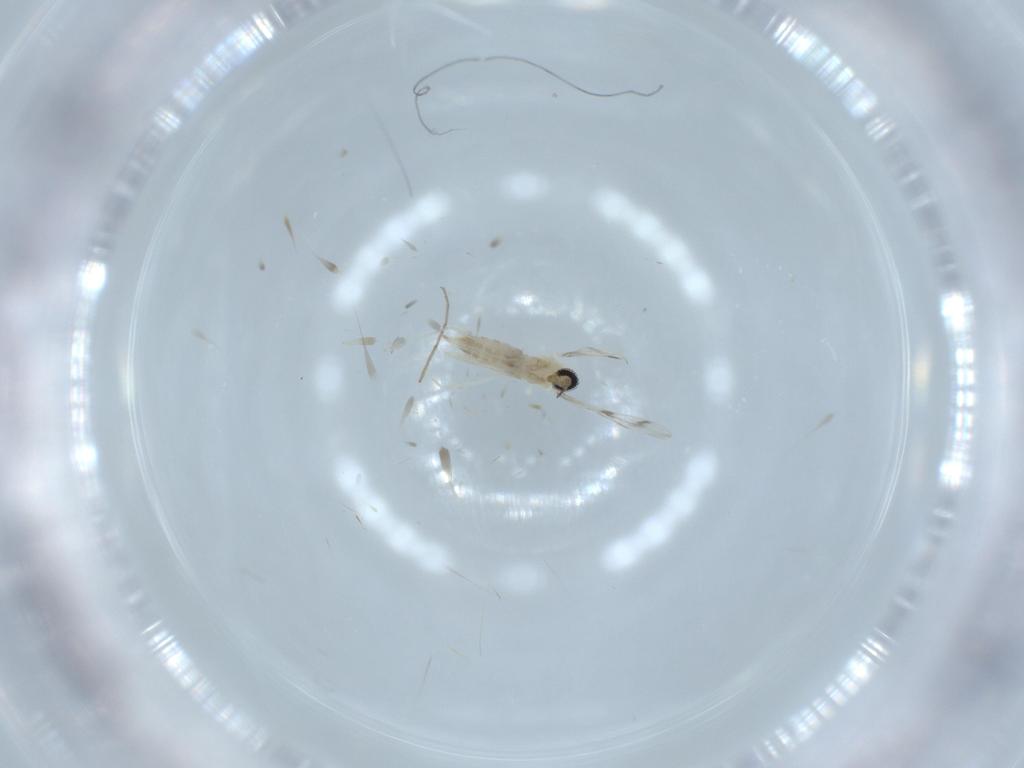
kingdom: Animalia
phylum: Arthropoda
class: Insecta
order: Diptera
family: Cecidomyiidae
